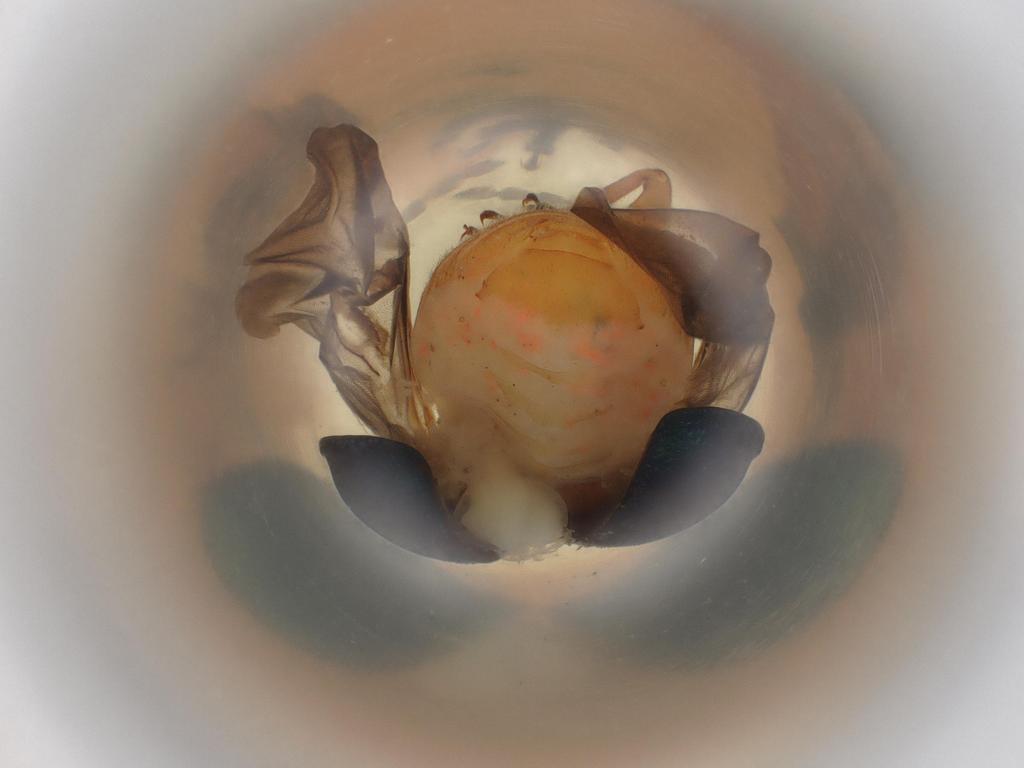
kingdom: Animalia
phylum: Arthropoda
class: Insecta
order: Coleoptera
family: Chrysomelidae
